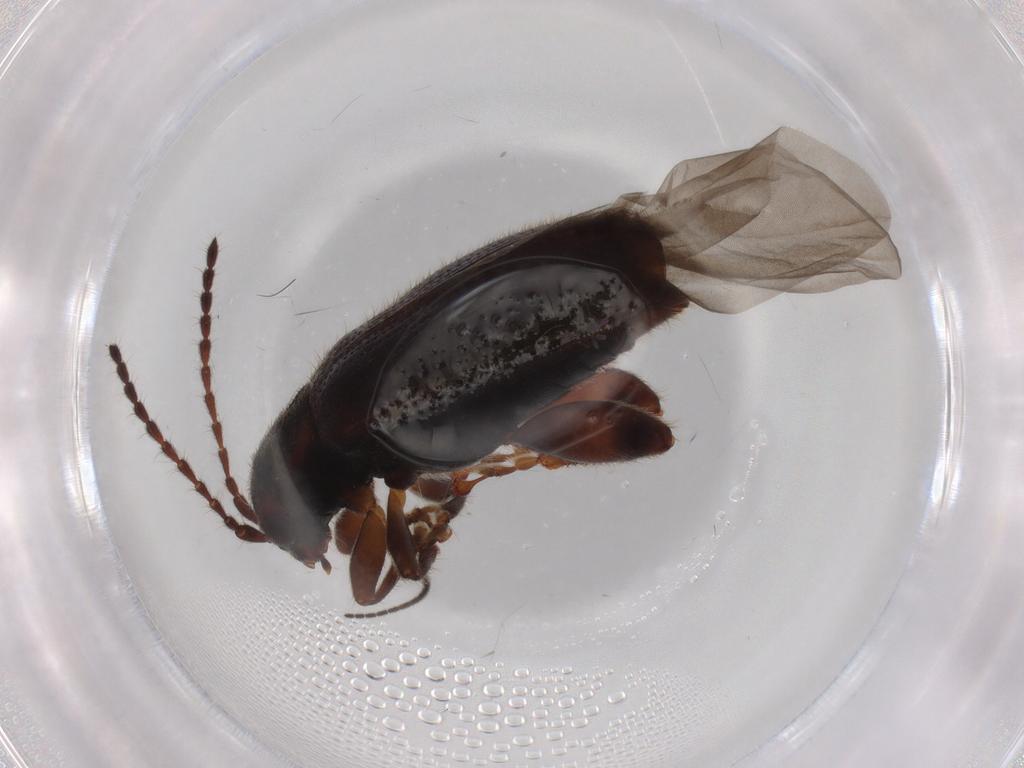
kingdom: Animalia
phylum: Arthropoda
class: Insecta
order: Coleoptera
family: Chrysomelidae
